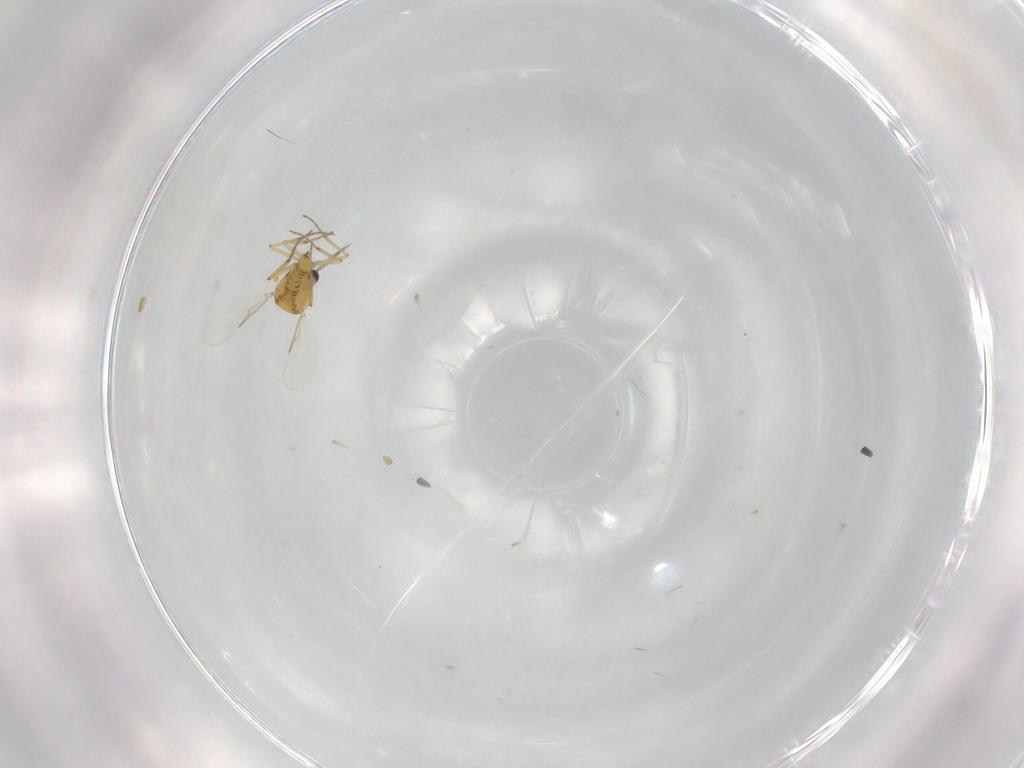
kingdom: Animalia
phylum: Arthropoda
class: Insecta
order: Diptera
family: Ceratopogonidae
